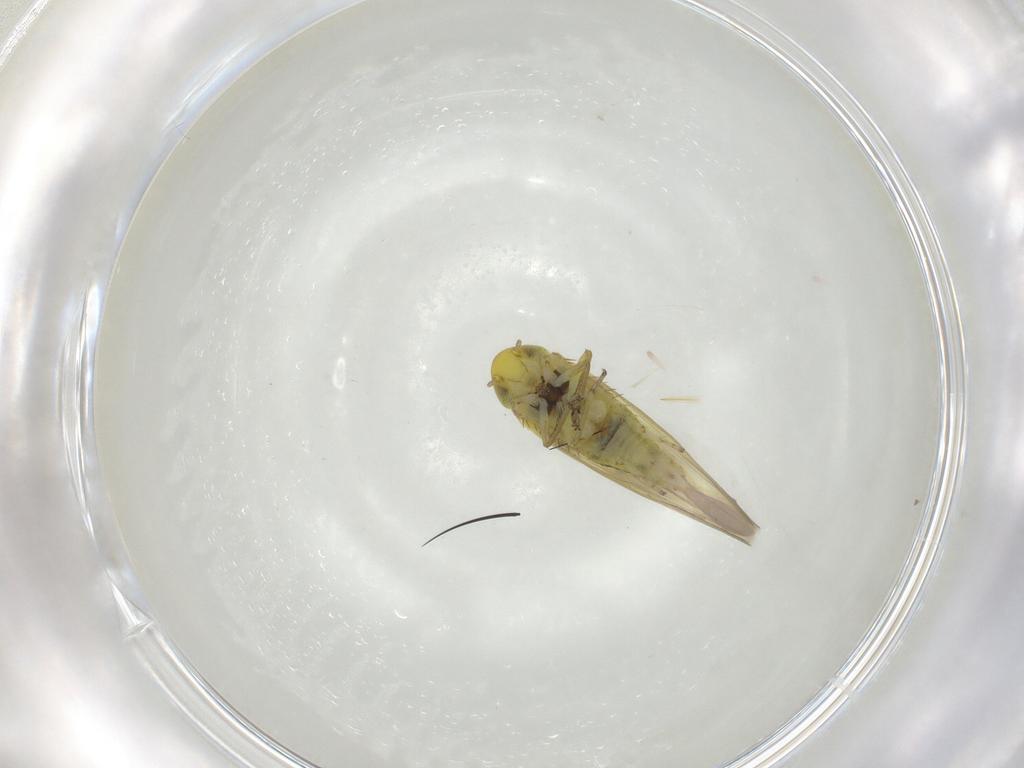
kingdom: Animalia
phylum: Arthropoda
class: Insecta
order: Hemiptera
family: Cicadellidae
